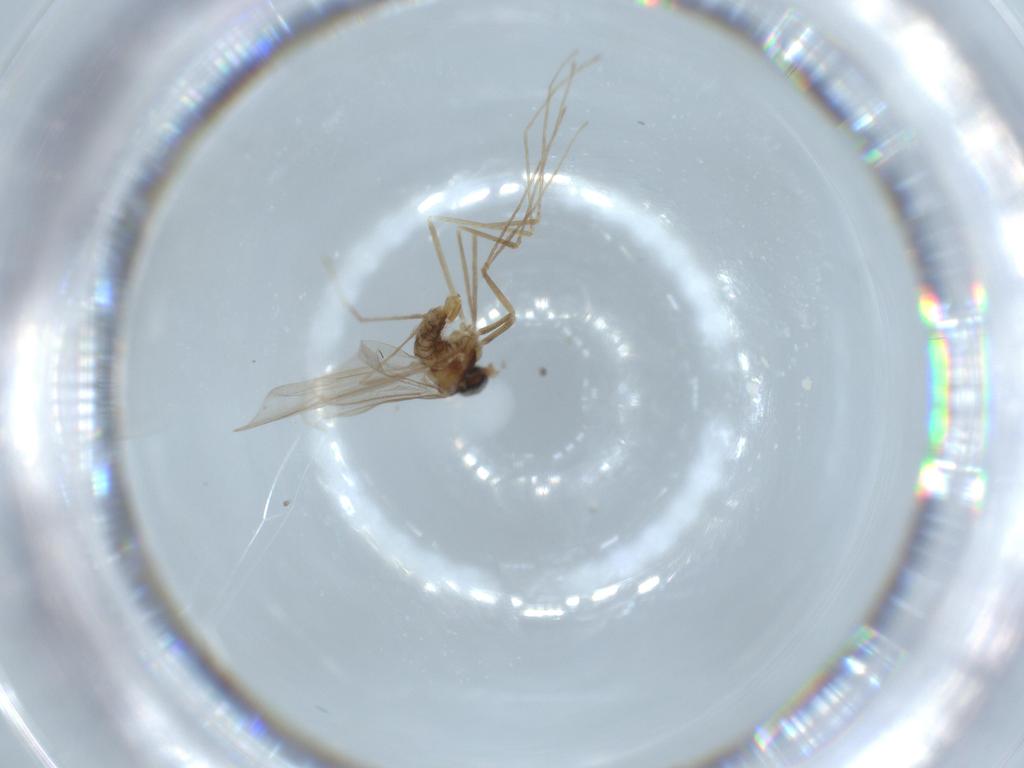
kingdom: Animalia
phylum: Arthropoda
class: Insecta
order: Diptera
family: Cecidomyiidae
